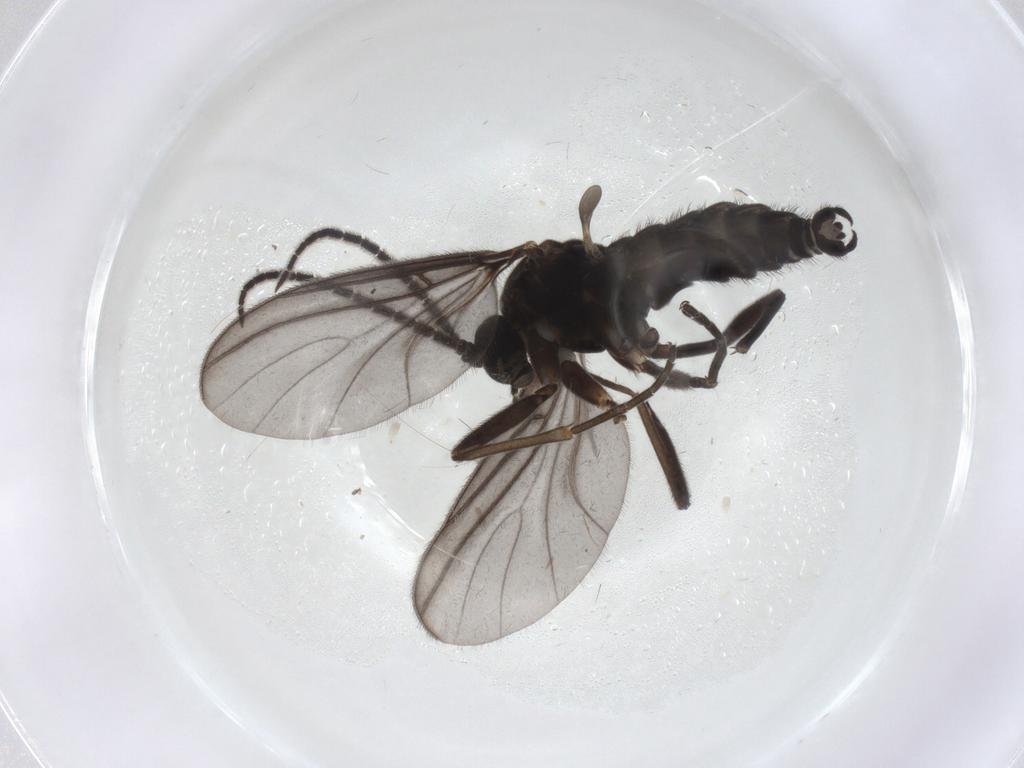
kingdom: Animalia
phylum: Arthropoda
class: Insecta
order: Diptera
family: Sciaridae
